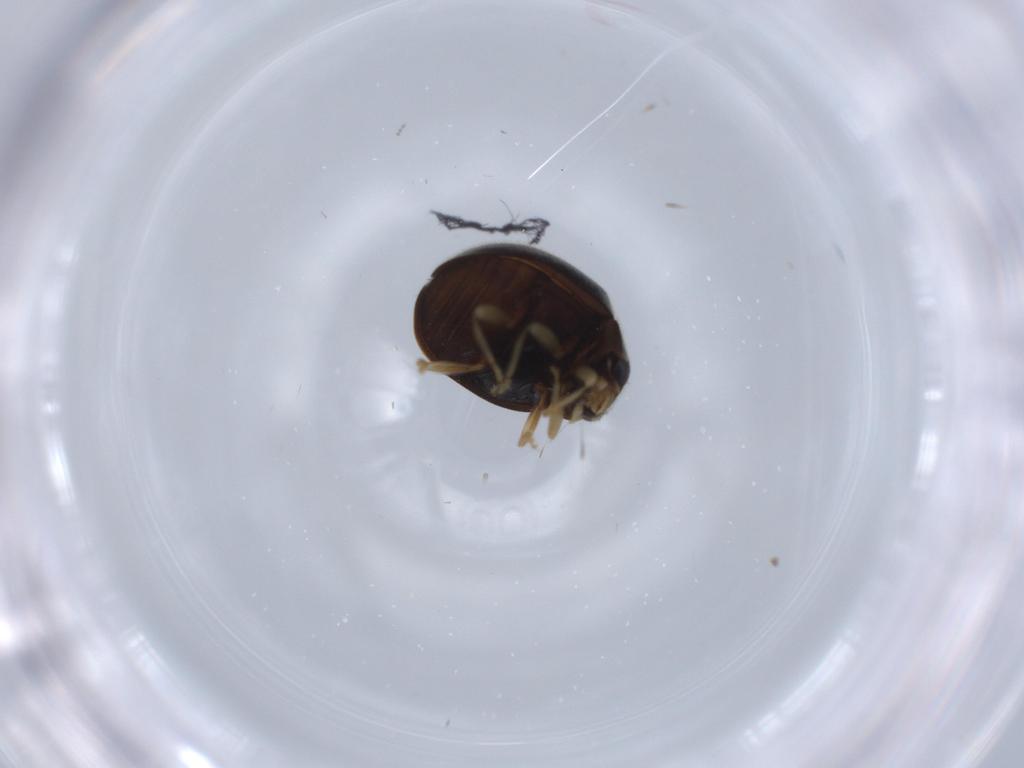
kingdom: Animalia
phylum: Arthropoda
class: Insecta
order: Coleoptera
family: Coccinellidae
